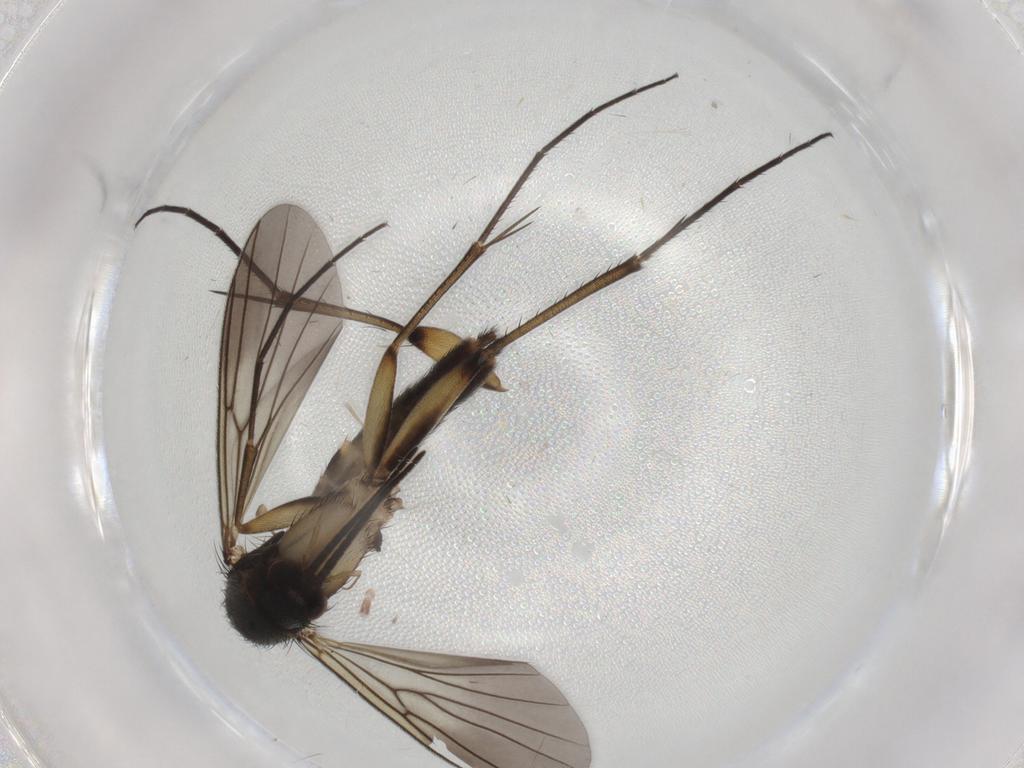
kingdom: Animalia
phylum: Arthropoda
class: Insecta
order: Diptera
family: Mycetophilidae
